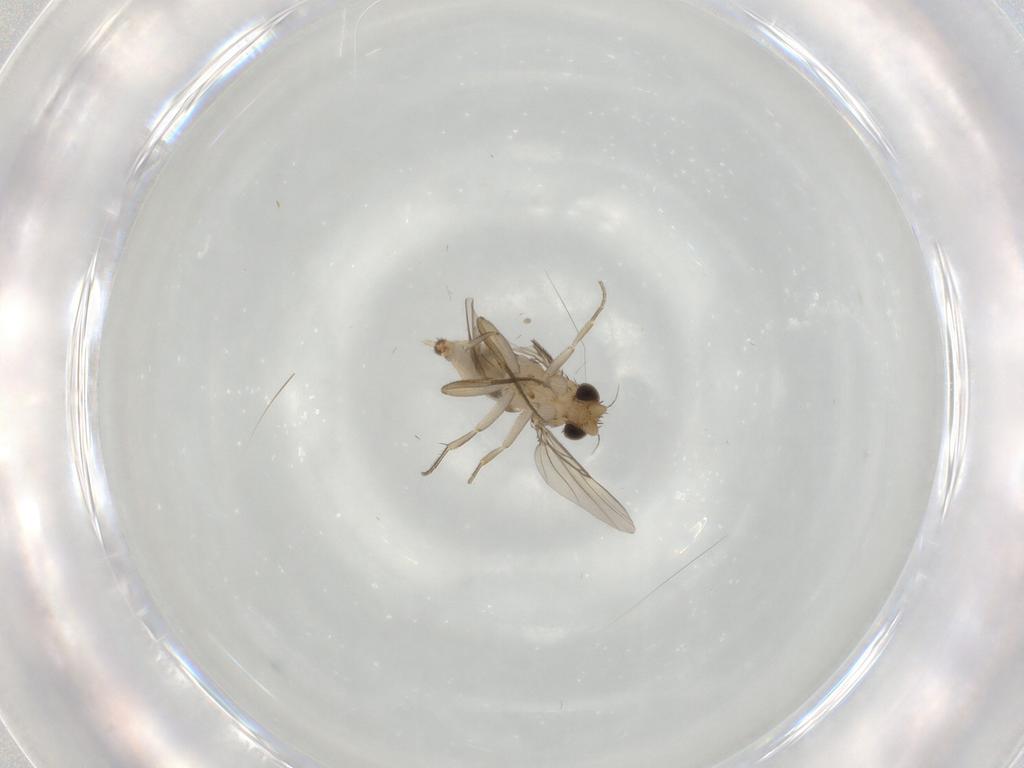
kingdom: Animalia
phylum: Arthropoda
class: Insecta
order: Diptera
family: Phoridae
